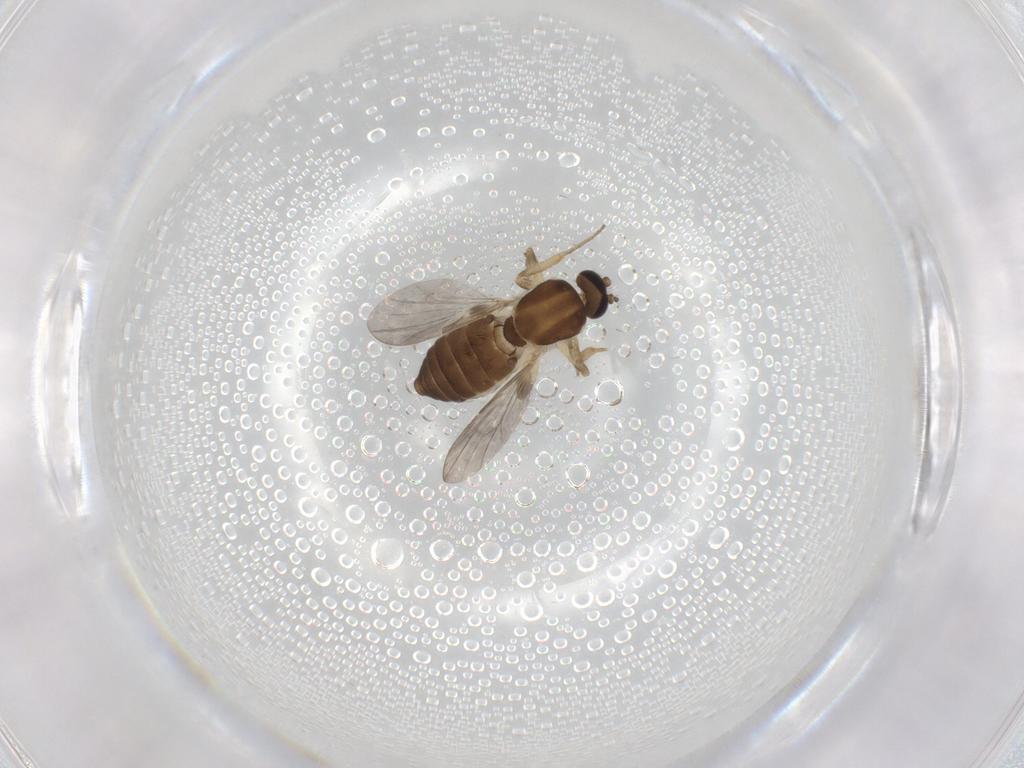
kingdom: Animalia
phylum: Arthropoda
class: Insecta
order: Diptera
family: Ceratopogonidae
